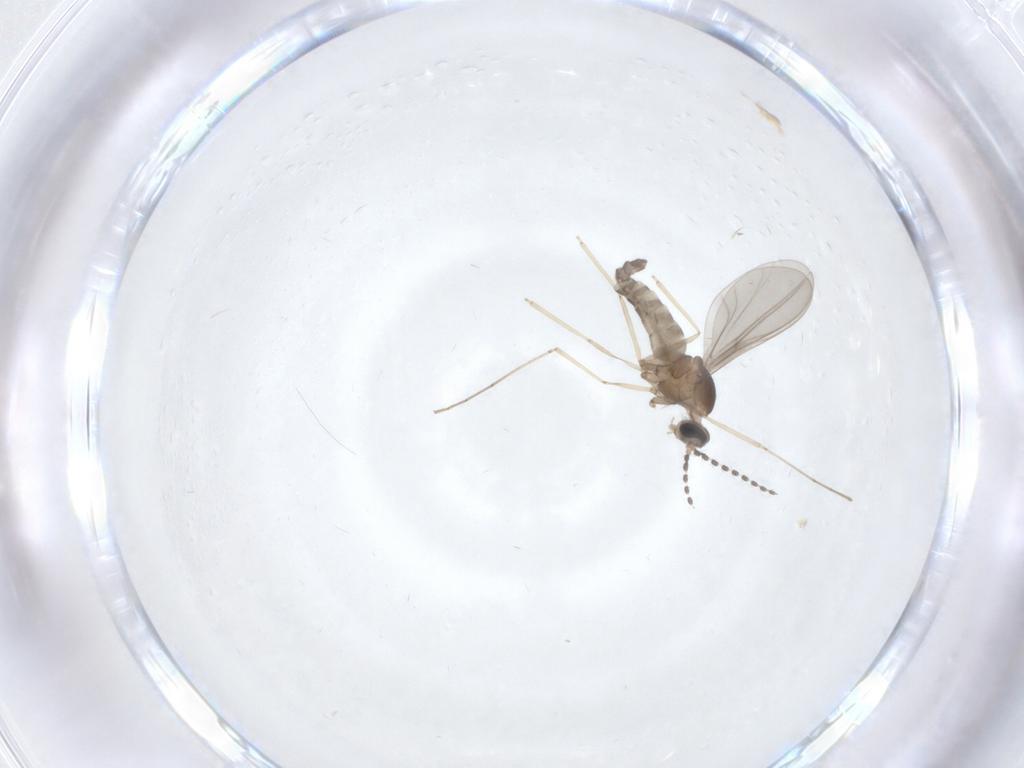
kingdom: Animalia
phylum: Arthropoda
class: Insecta
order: Diptera
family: Cecidomyiidae
